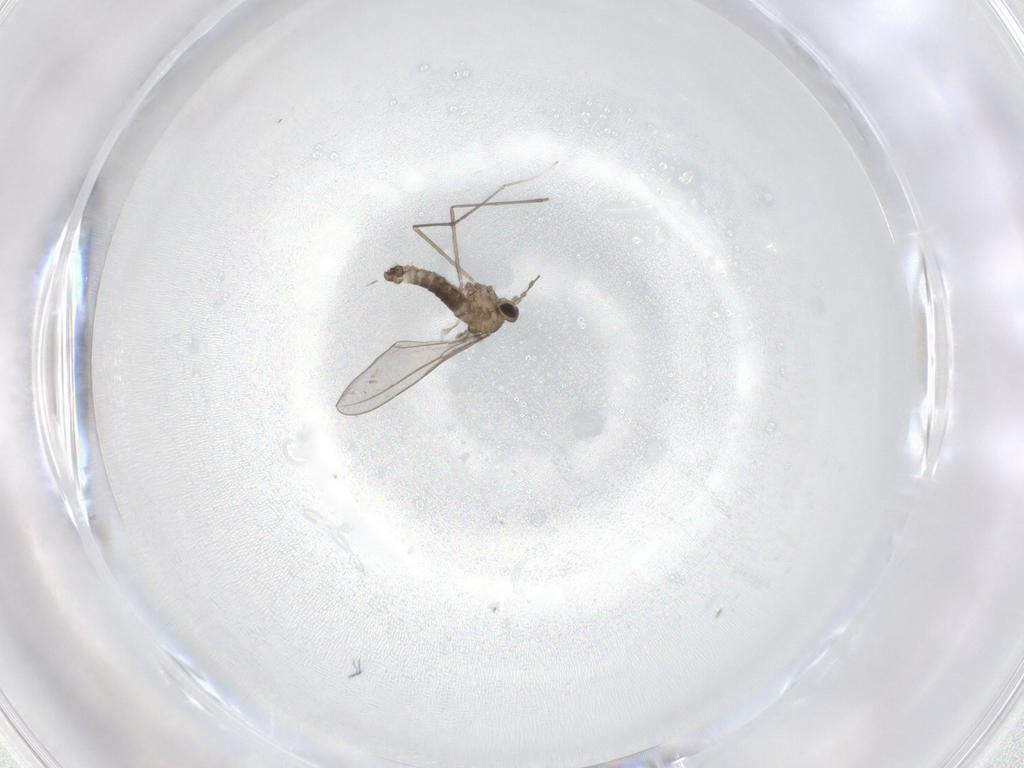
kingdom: Animalia
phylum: Arthropoda
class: Insecta
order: Diptera
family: Cecidomyiidae
